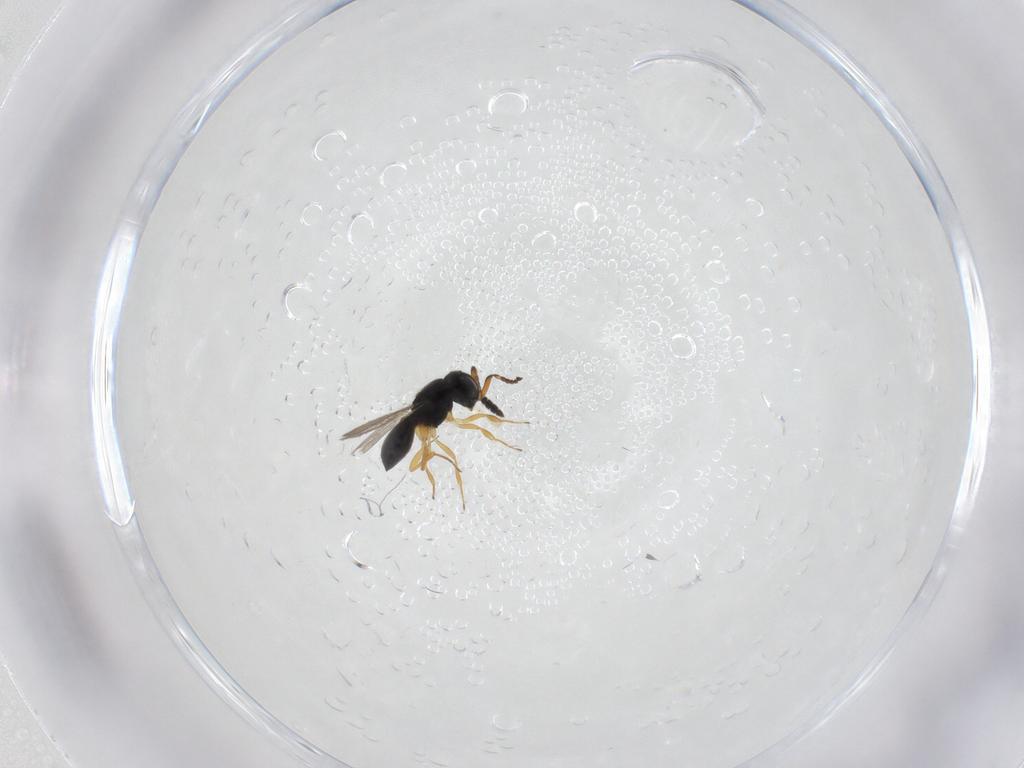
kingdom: Animalia
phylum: Arthropoda
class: Insecta
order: Hymenoptera
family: Scelionidae
